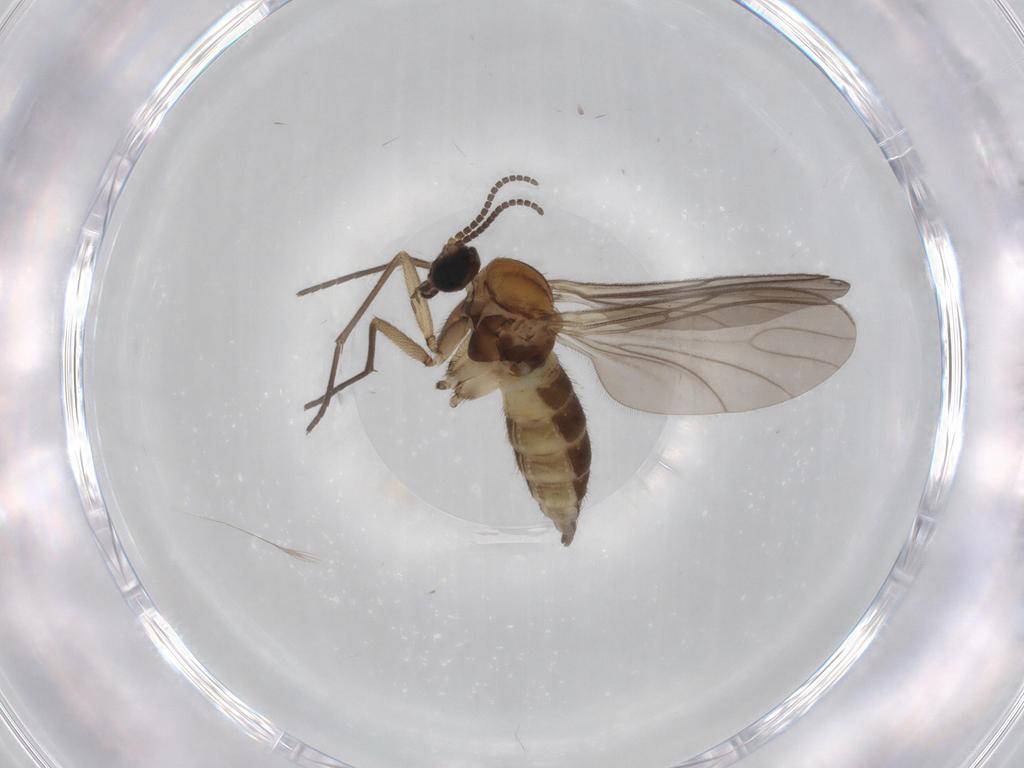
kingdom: Animalia
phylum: Arthropoda
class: Insecta
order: Diptera
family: Sciaridae
